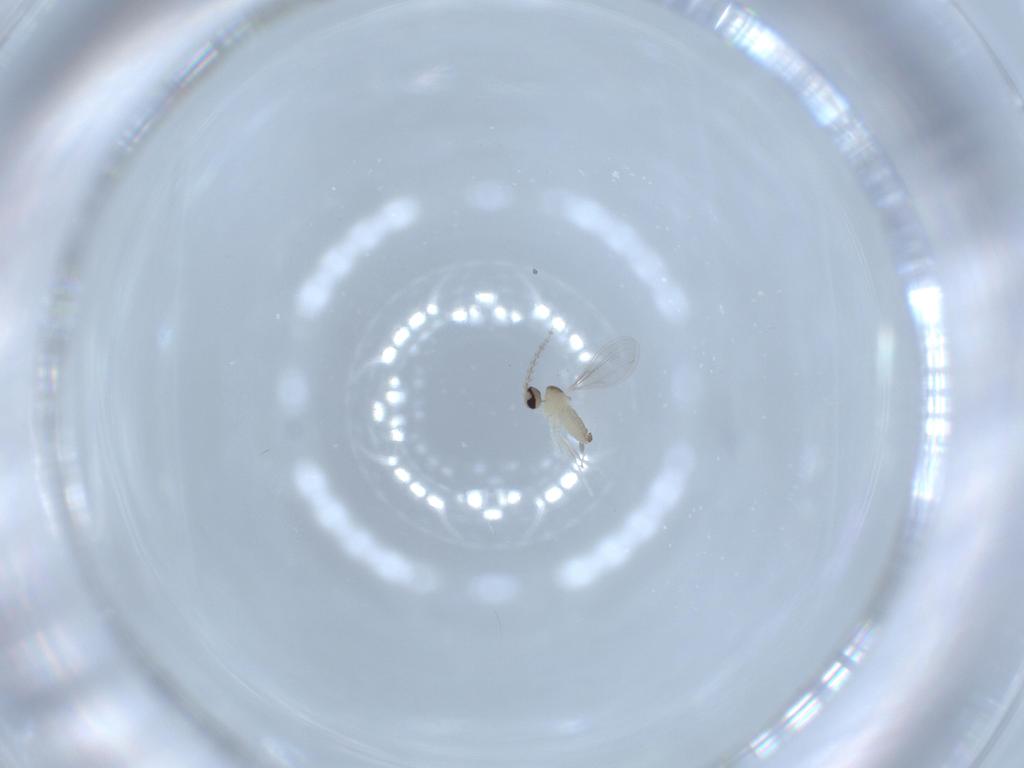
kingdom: Animalia
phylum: Arthropoda
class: Insecta
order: Diptera
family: Cecidomyiidae
